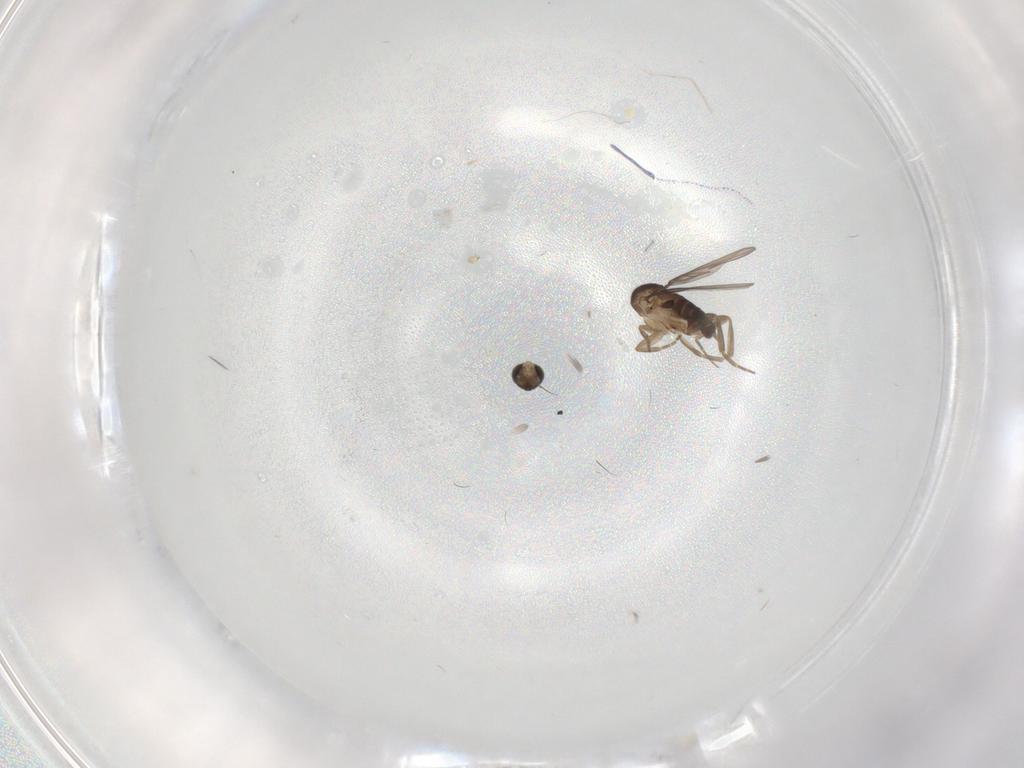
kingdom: Animalia
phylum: Arthropoda
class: Insecta
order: Diptera
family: Phoridae
